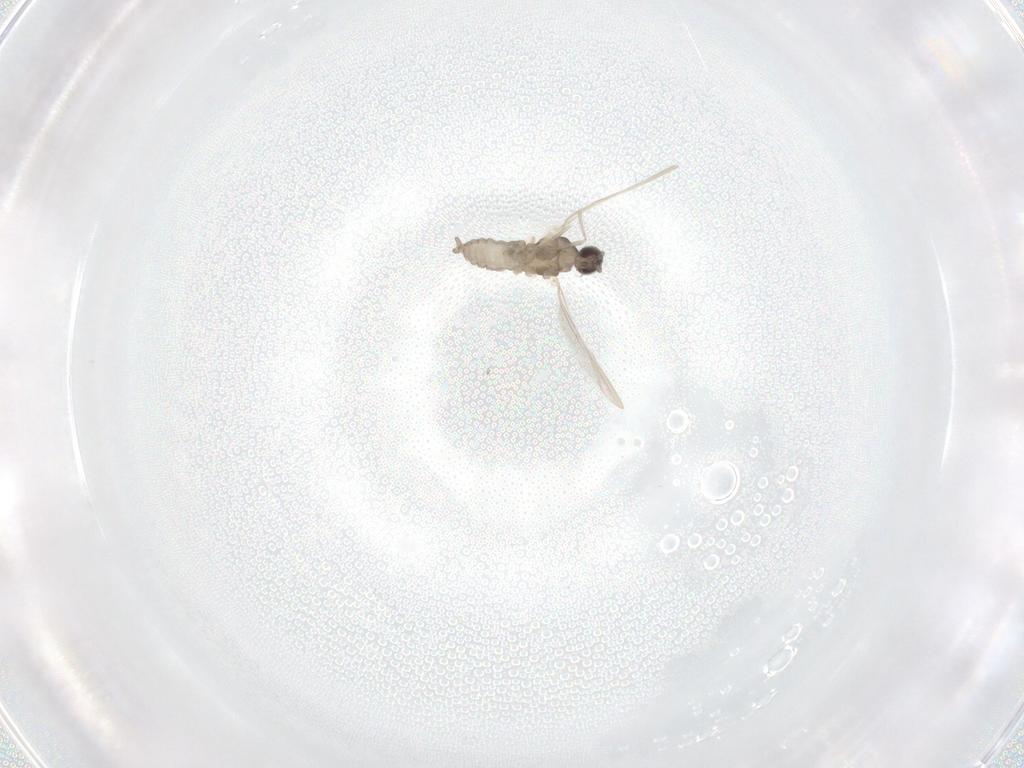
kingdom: Animalia
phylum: Arthropoda
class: Insecta
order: Diptera
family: Cecidomyiidae
